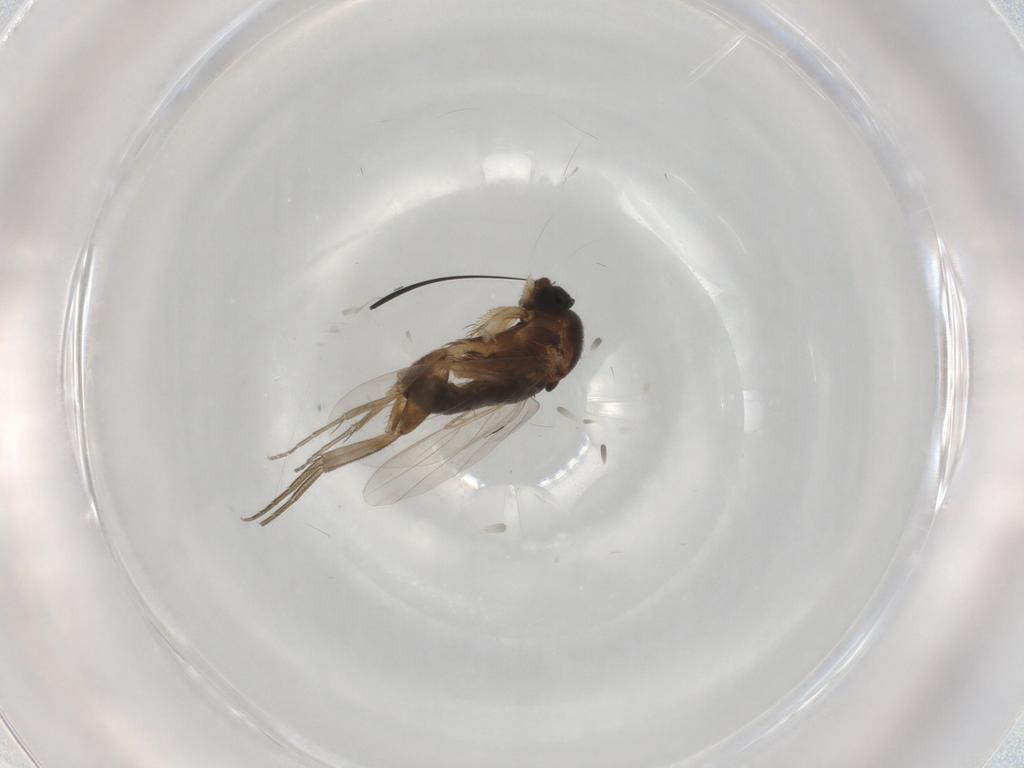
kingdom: Animalia
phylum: Arthropoda
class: Insecta
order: Diptera
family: Phoridae
